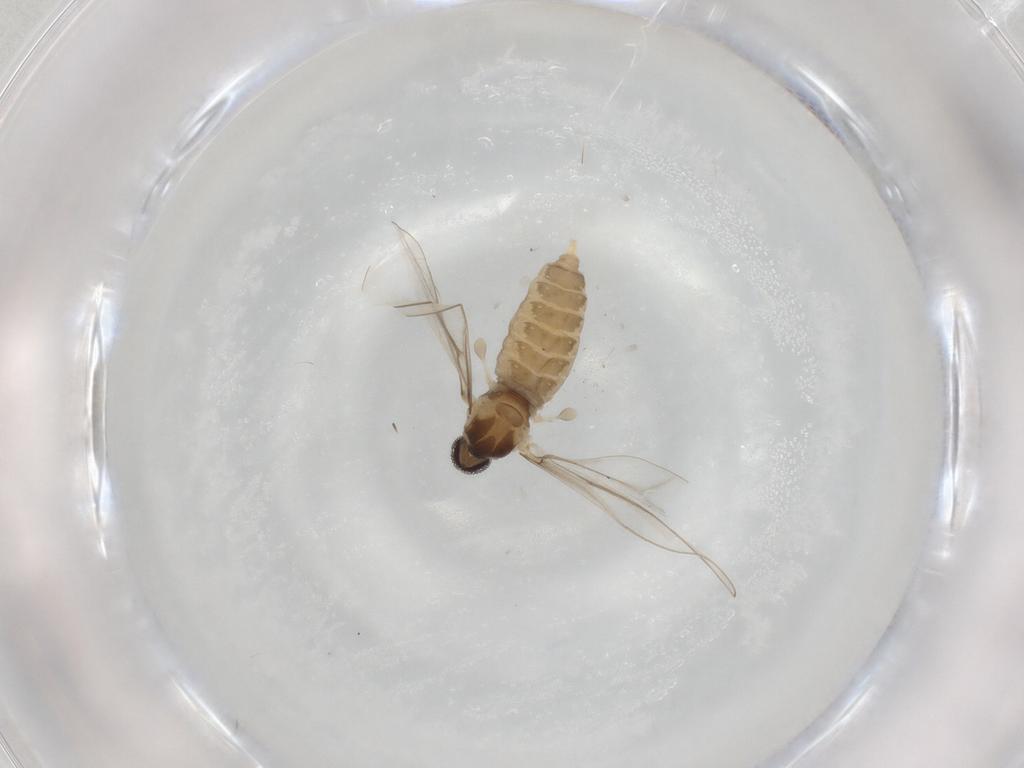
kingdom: Animalia
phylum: Arthropoda
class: Insecta
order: Diptera
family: Cecidomyiidae
